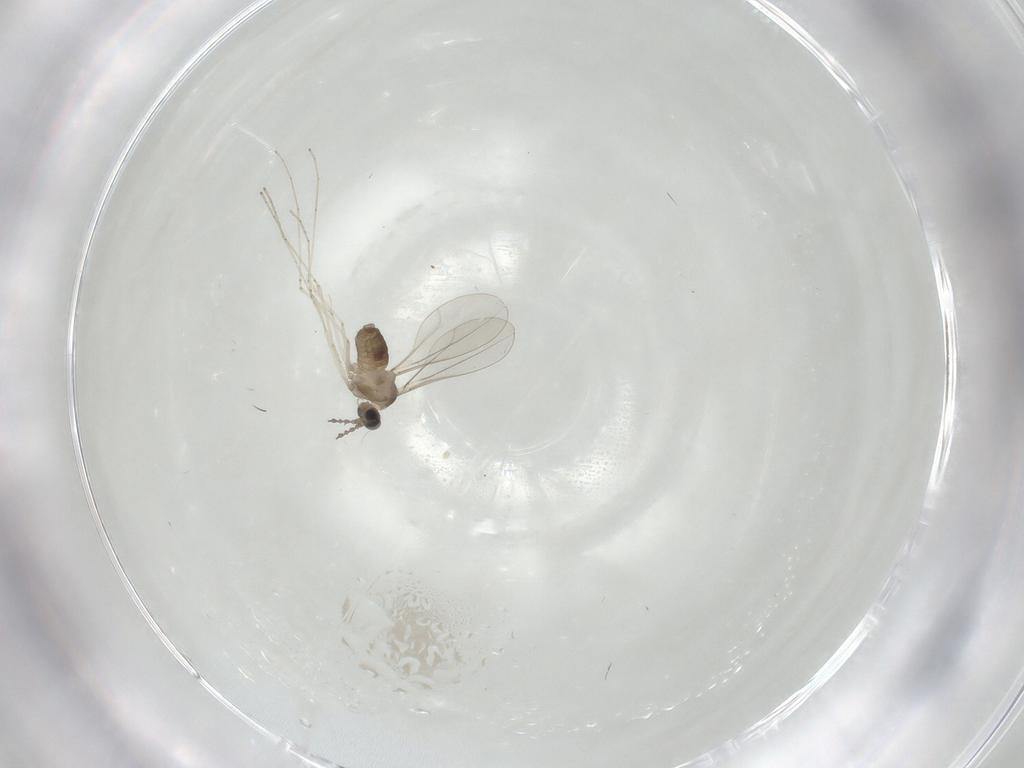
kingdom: Animalia
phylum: Arthropoda
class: Insecta
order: Diptera
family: Cecidomyiidae
